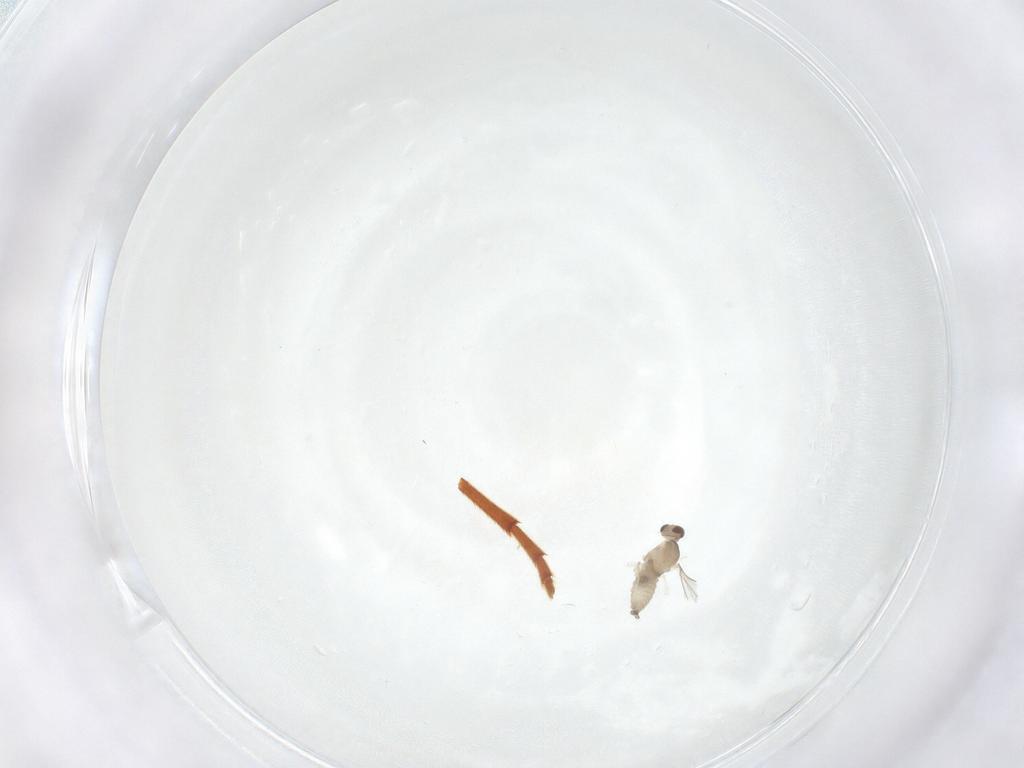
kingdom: Animalia
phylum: Arthropoda
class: Insecta
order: Diptera
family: Cecidomyiidae
